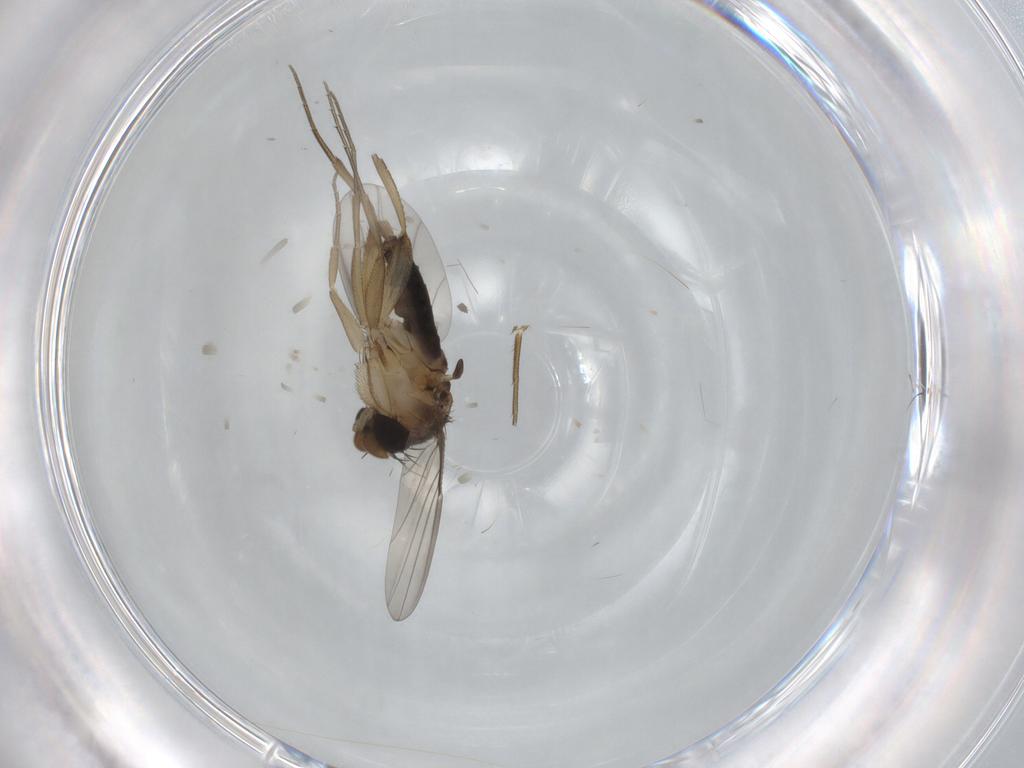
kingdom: Animalia
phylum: Arthropoda
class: Insecta
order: Diptera
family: Phoridae
